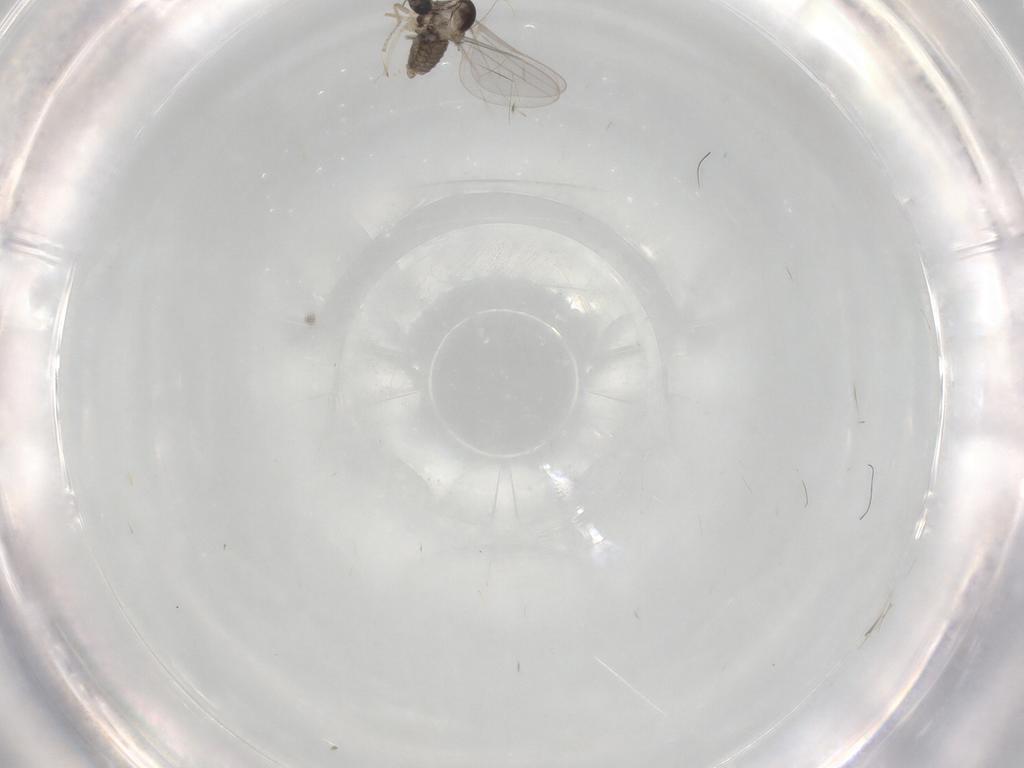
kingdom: Animalia
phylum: Arthropoda
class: Insecta
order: Diptera
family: Cecidomyiidae
